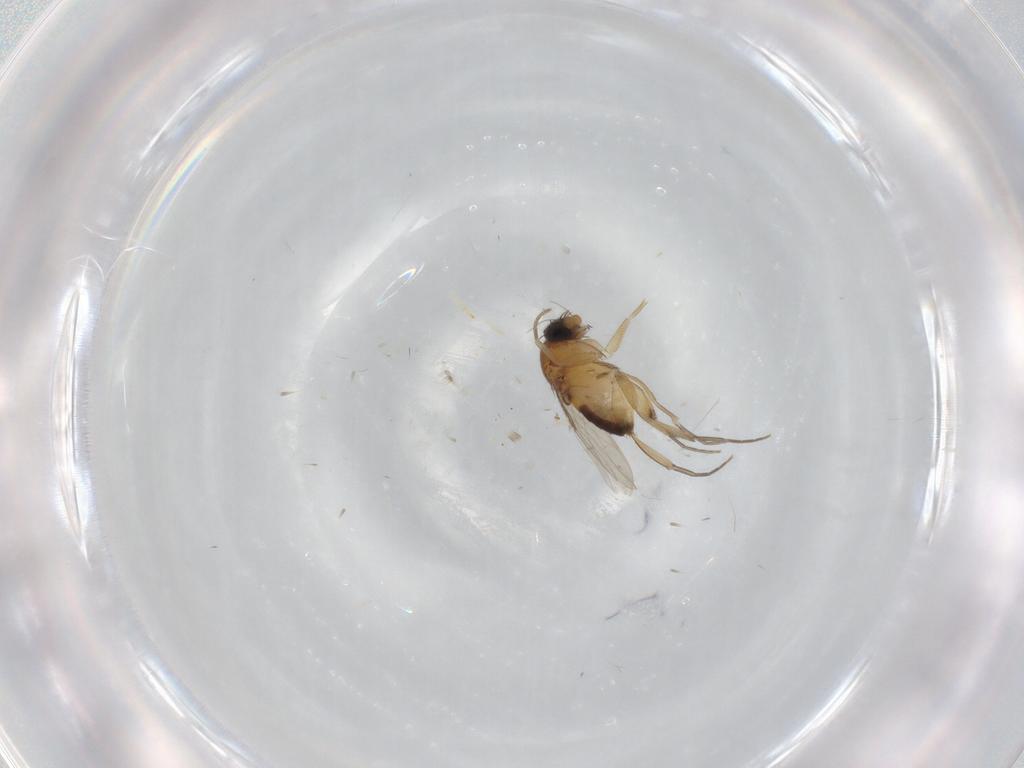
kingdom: Animalia
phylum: Arthropoda
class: Insecta
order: Diptera
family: Phoridae
